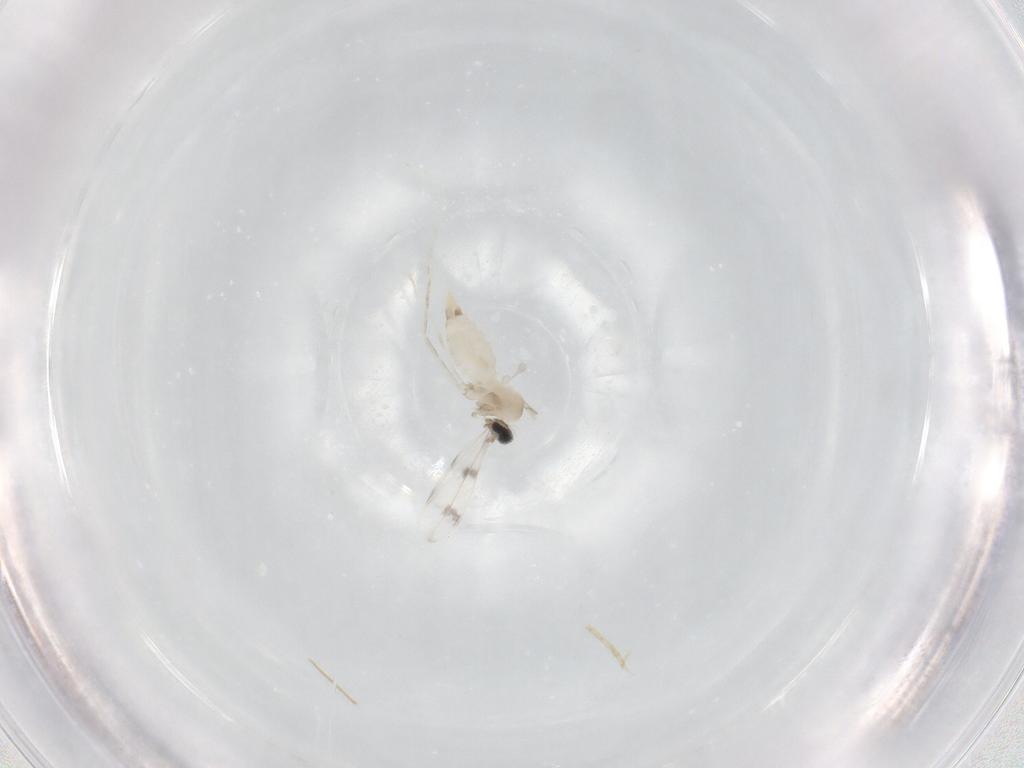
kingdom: Animalia
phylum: Arthropoda
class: Insecta
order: Diptera
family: Cecidomyiidae
